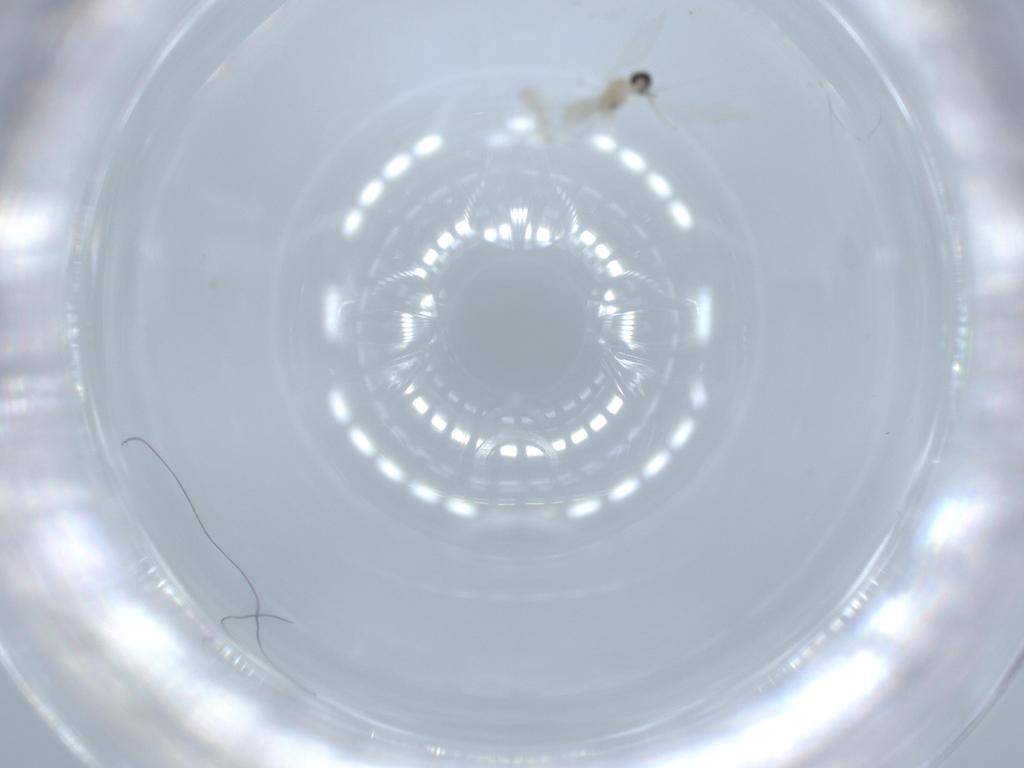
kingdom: Animalia
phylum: Arthropoda
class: Insecta
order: Diptera
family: Cecidomyiidae
